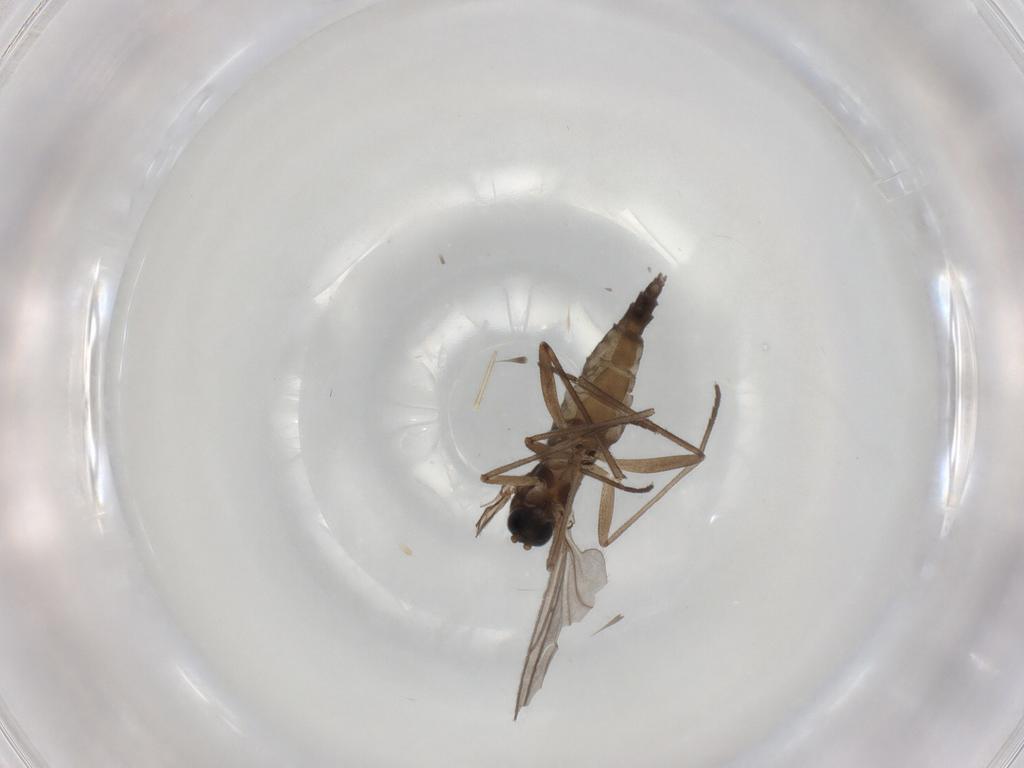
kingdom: Animalia
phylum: Arthropoda
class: Insecta
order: Diptera
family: Sciaridae
